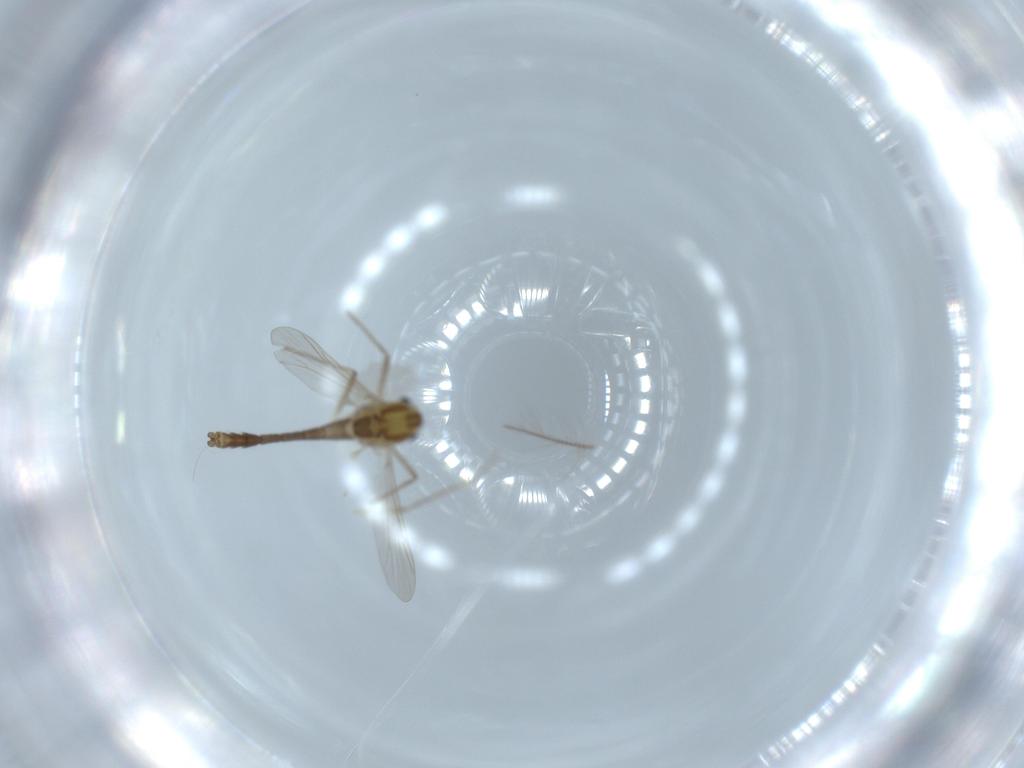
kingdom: Animalia
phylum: Arthropoda
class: Insecta
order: Diptera
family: Chironomidae
